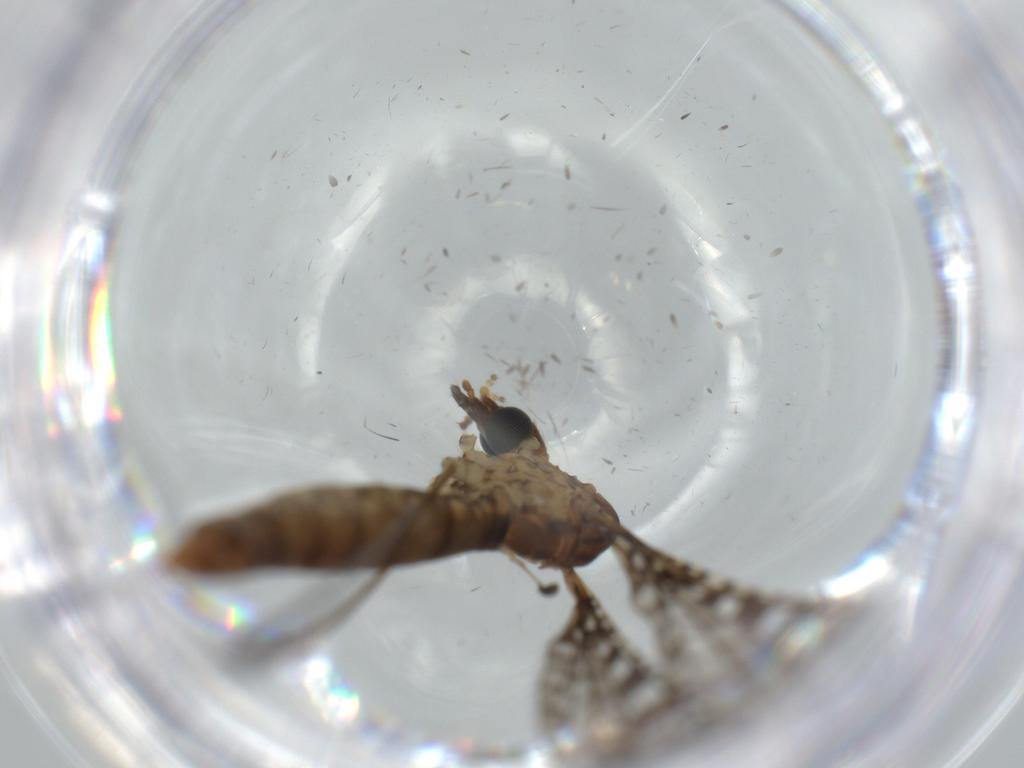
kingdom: Animalia
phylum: Arthropoda
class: Insecta
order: Diptera
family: Limoniidae
